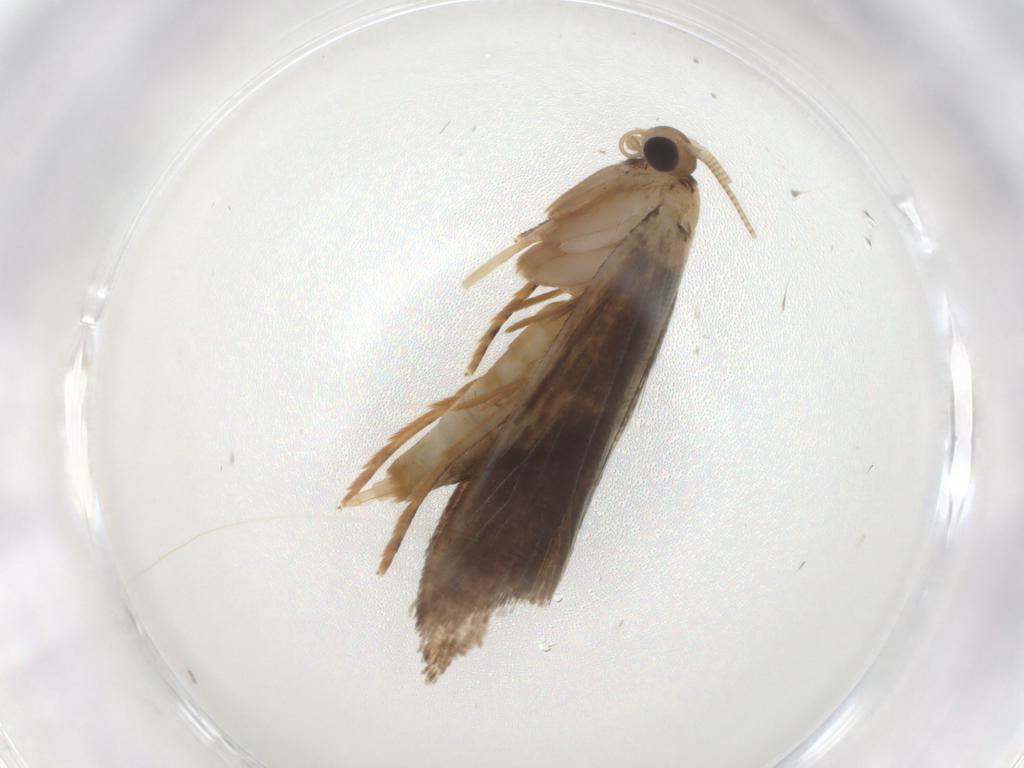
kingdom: Animalia
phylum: Arthropoda
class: Insecta
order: Lepidoptera
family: Noctuidae
